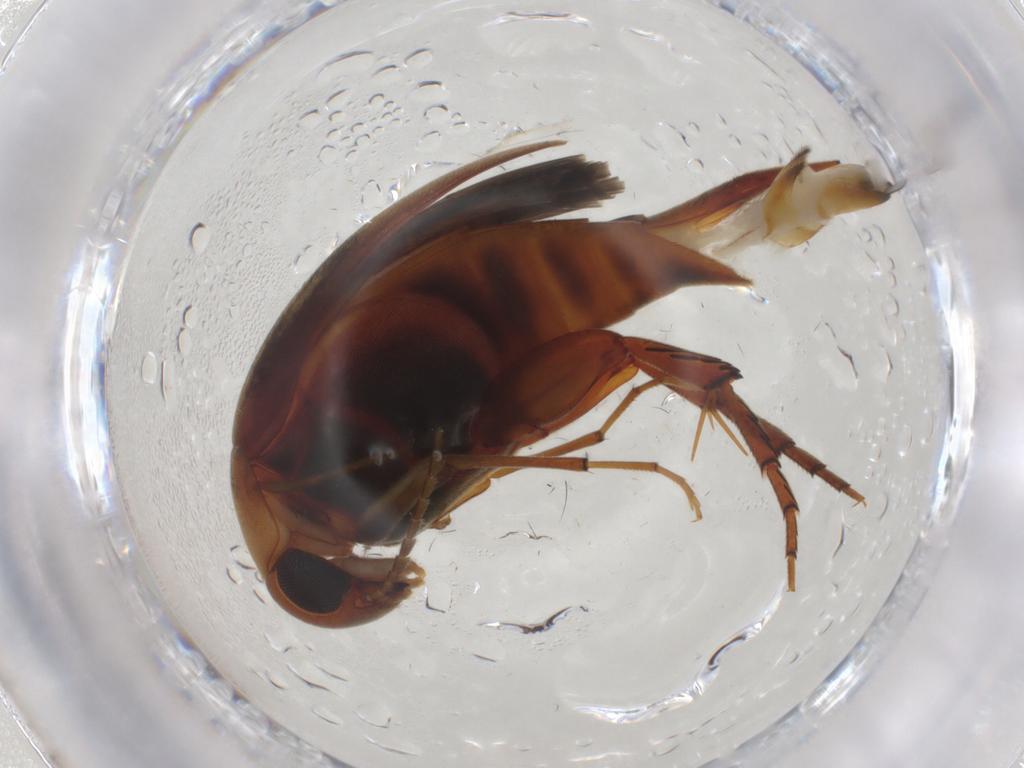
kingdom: Animalia
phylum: Arthropoda
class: Insecta
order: Coleoptera
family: Mordellidae
